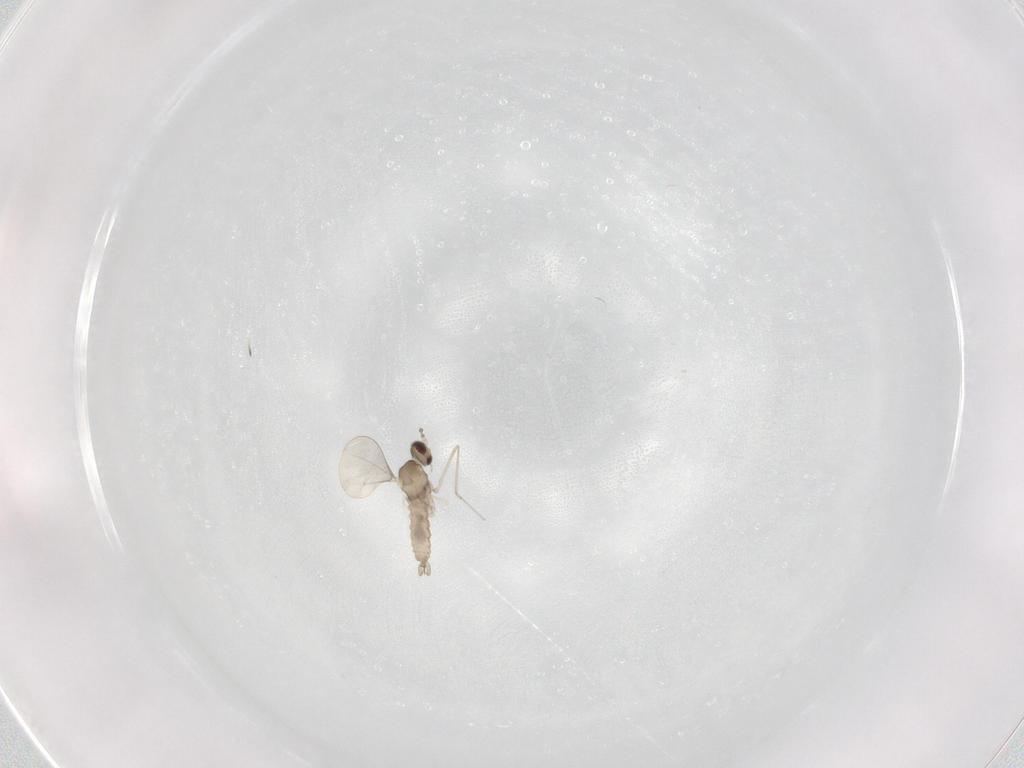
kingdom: Animalia
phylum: Arthropoda
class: Insecta
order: Diptera
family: Cecidomyiidae
